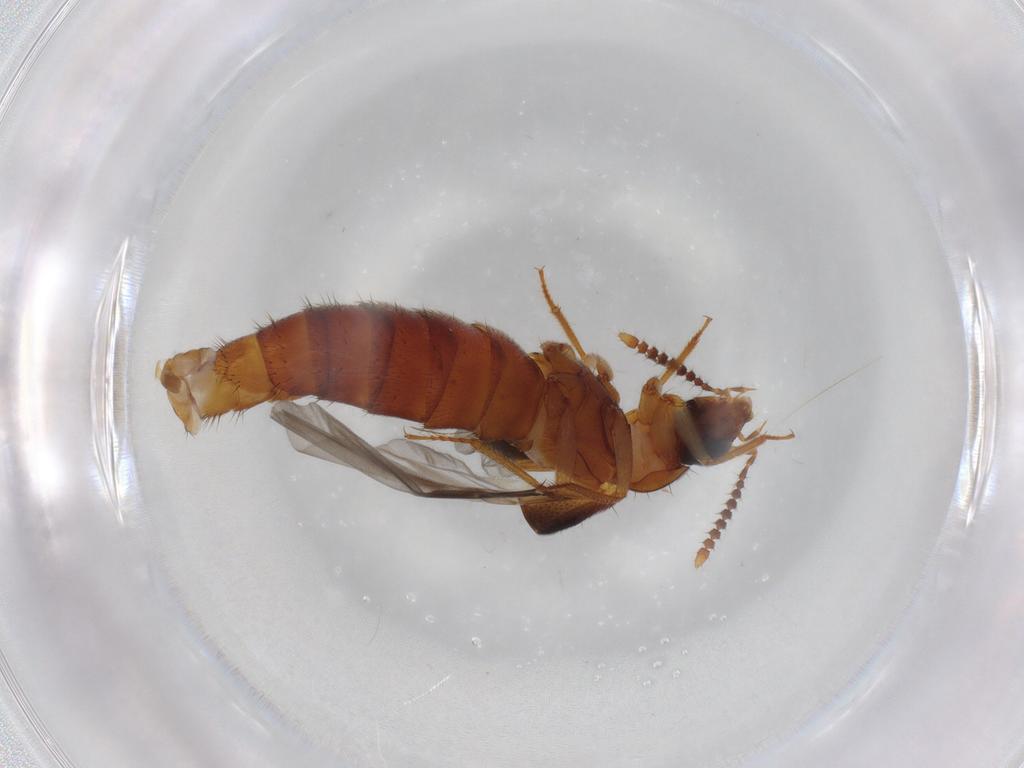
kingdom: Animalia
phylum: Arthropoda
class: Insecta
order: Coleoptera
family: Staphylinidae
